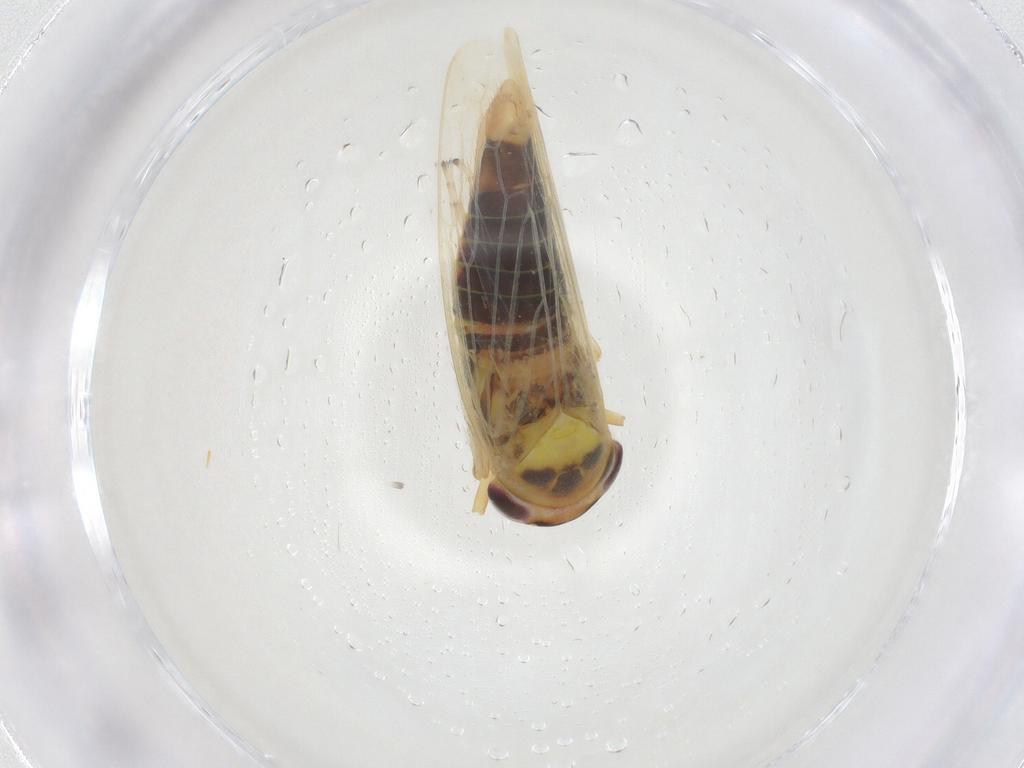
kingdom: Animalia
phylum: Arthropoda
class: Insecta
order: Hemiptera
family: Cicadellidae
